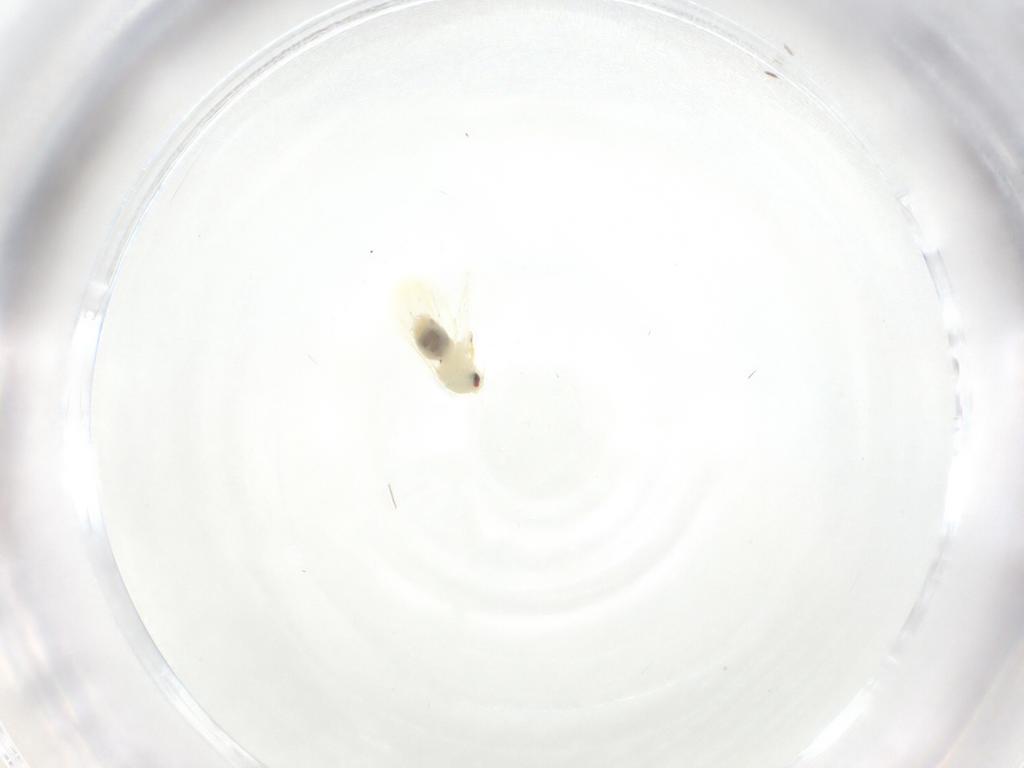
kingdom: Animalia
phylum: Arthropoda
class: Insecta
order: Hemiptera
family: Aleyrodidae
